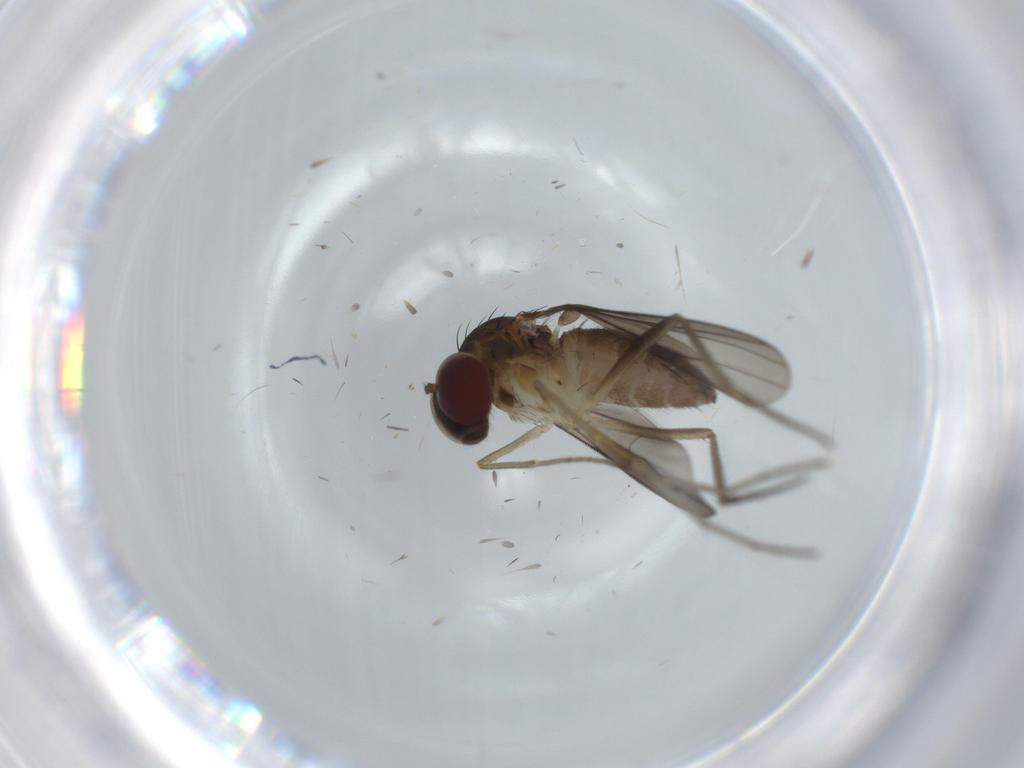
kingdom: Animalia
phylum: Arthropoda
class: Insecta
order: Diptera
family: Dolichopodidae
